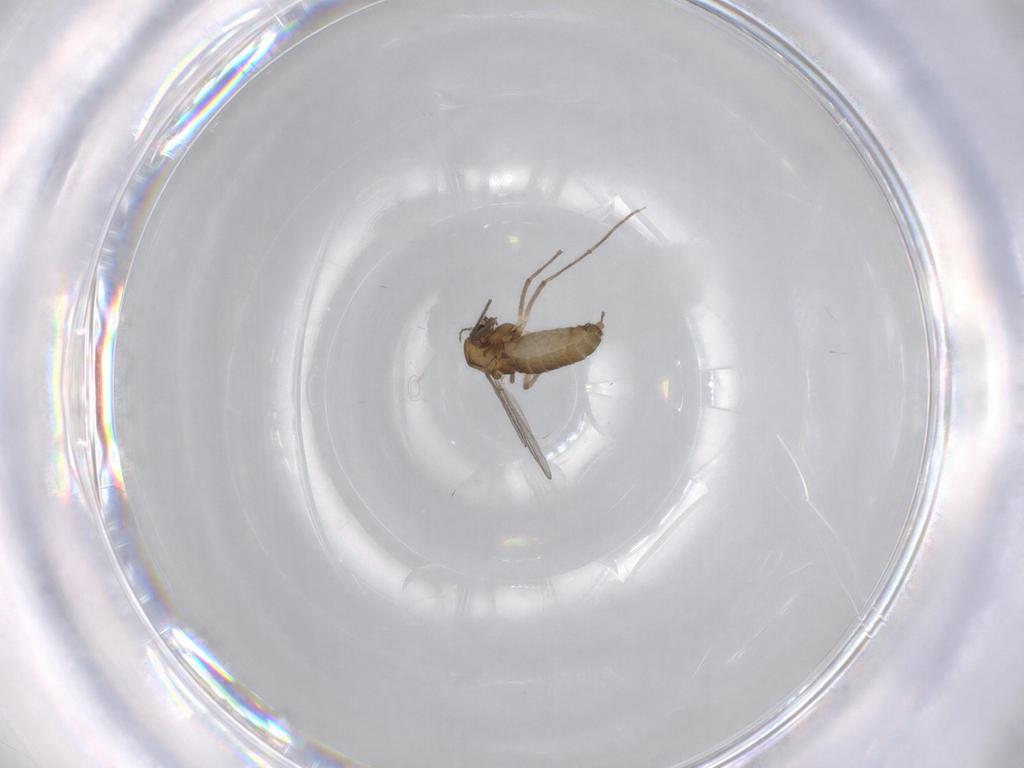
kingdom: Animalia
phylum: Arthropoda
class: Insecta
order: Diptera
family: Chironomidae
